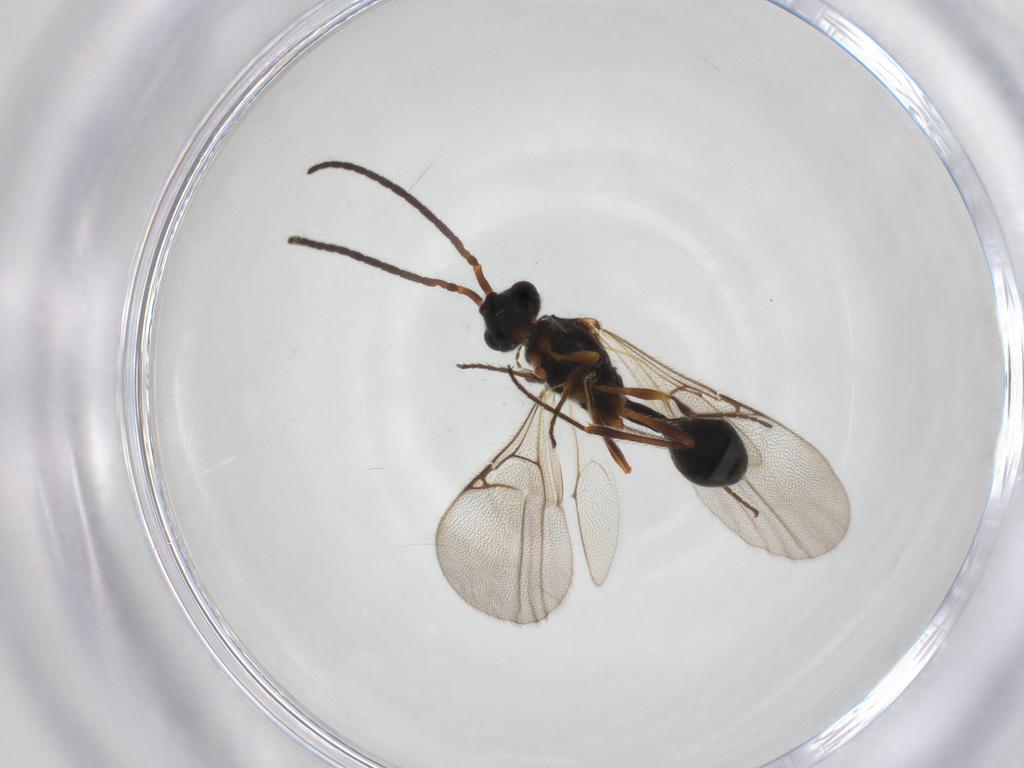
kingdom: Animalia
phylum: Arthropoda
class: Insecta
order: Hymenoptera
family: Diapriidae
